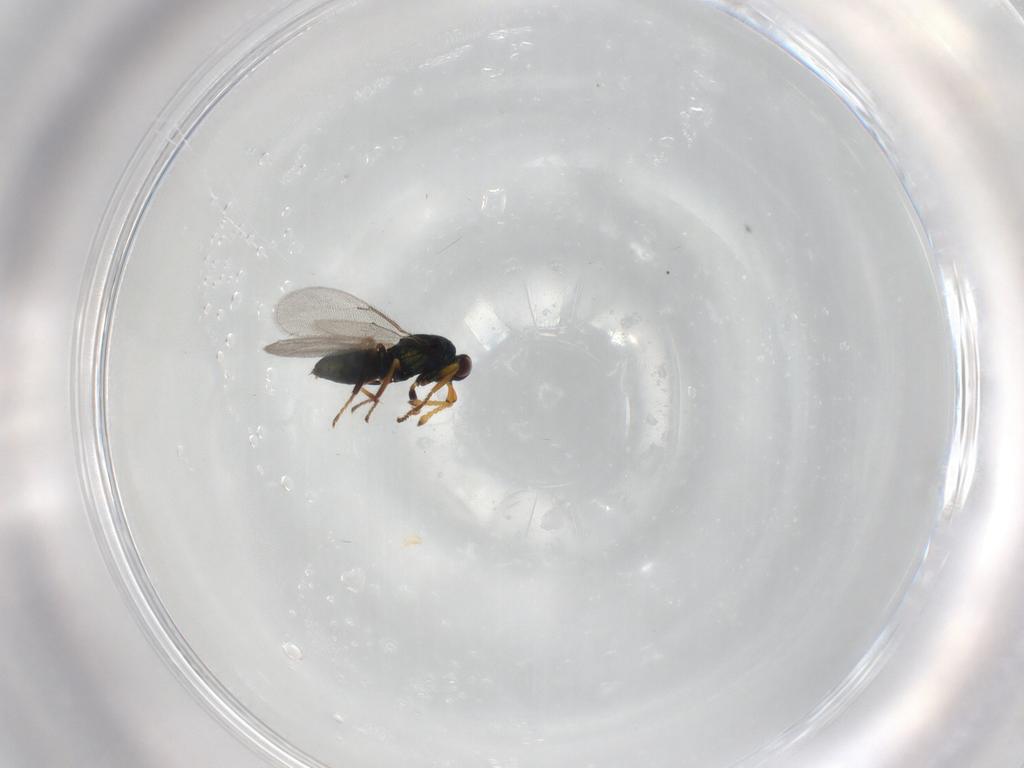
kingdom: Animalia
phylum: Arthropoda
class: Insecta
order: Hymenoptera
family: Eulophidae
